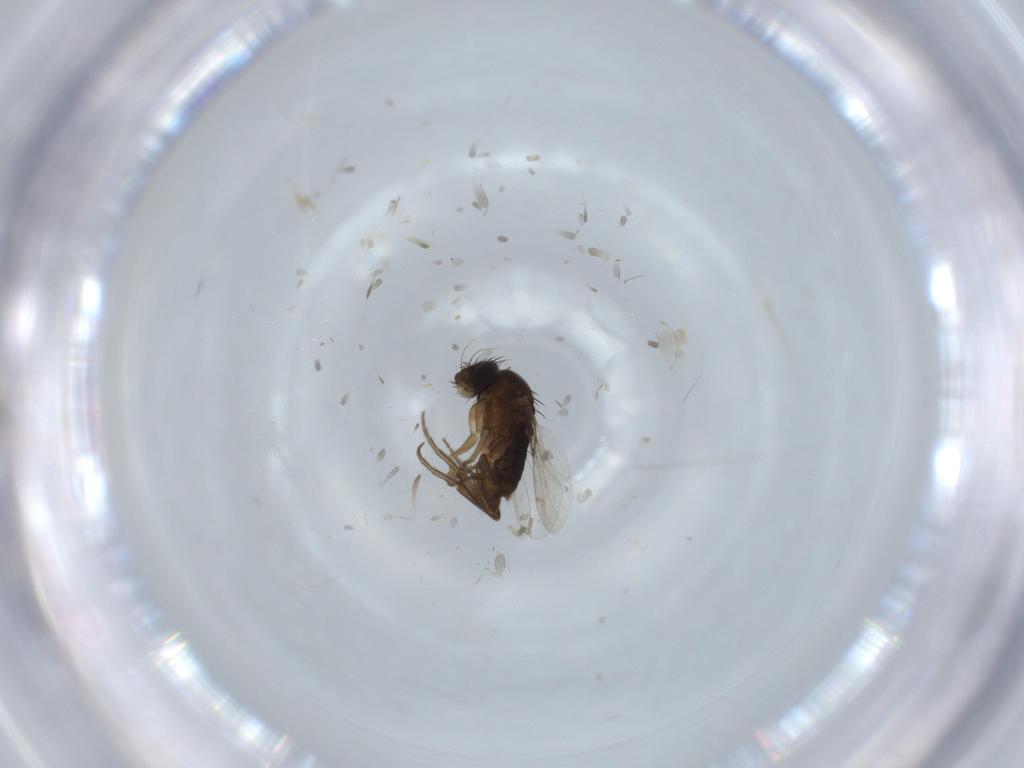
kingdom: Animalia
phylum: Arthropoda
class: Insecta
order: Diptera
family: Phoridae
